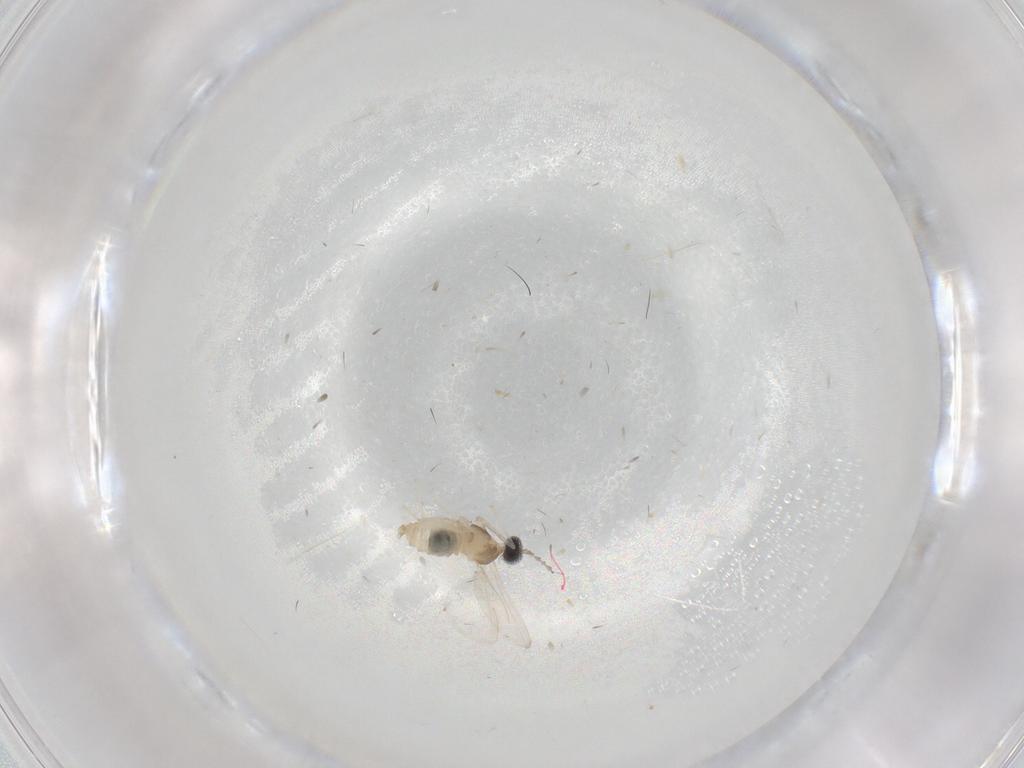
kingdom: Animalia
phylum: Arthropoda
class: Insecta
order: Diptera
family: Cecidomyiidae
